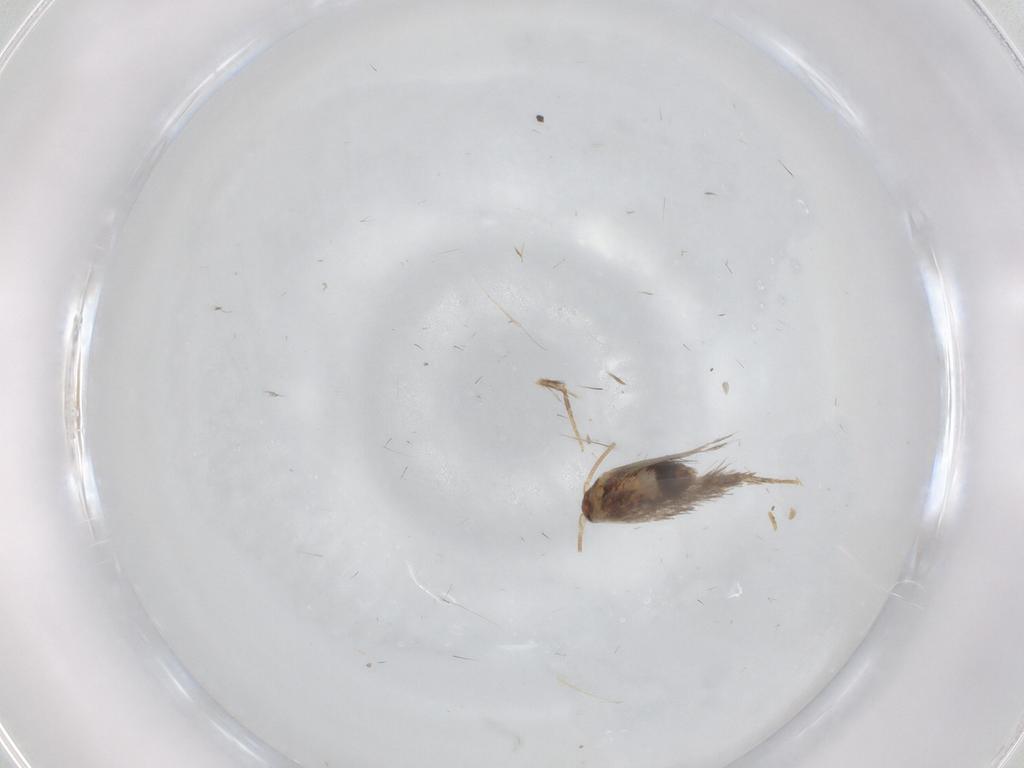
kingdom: Animalia
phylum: Arthropoda
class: Insecta
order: Lepidoptera
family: Nepticulidae
